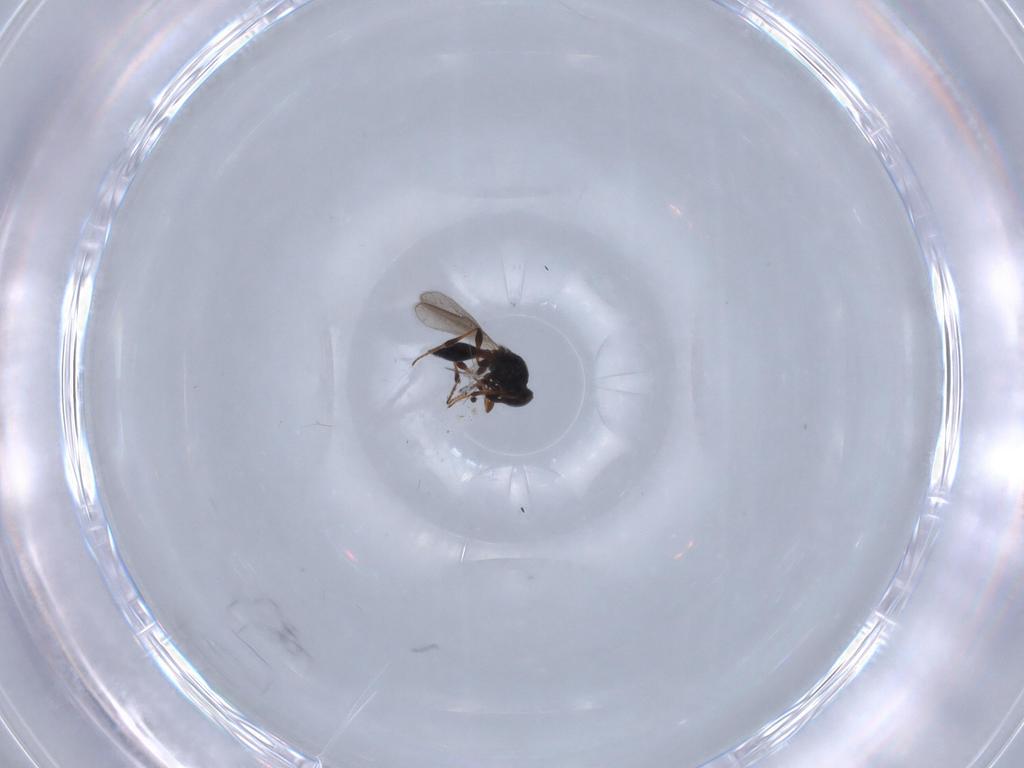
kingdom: Animalia
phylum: Arthropoda
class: Insecta
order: Hymenoptera
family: Platygastridae
